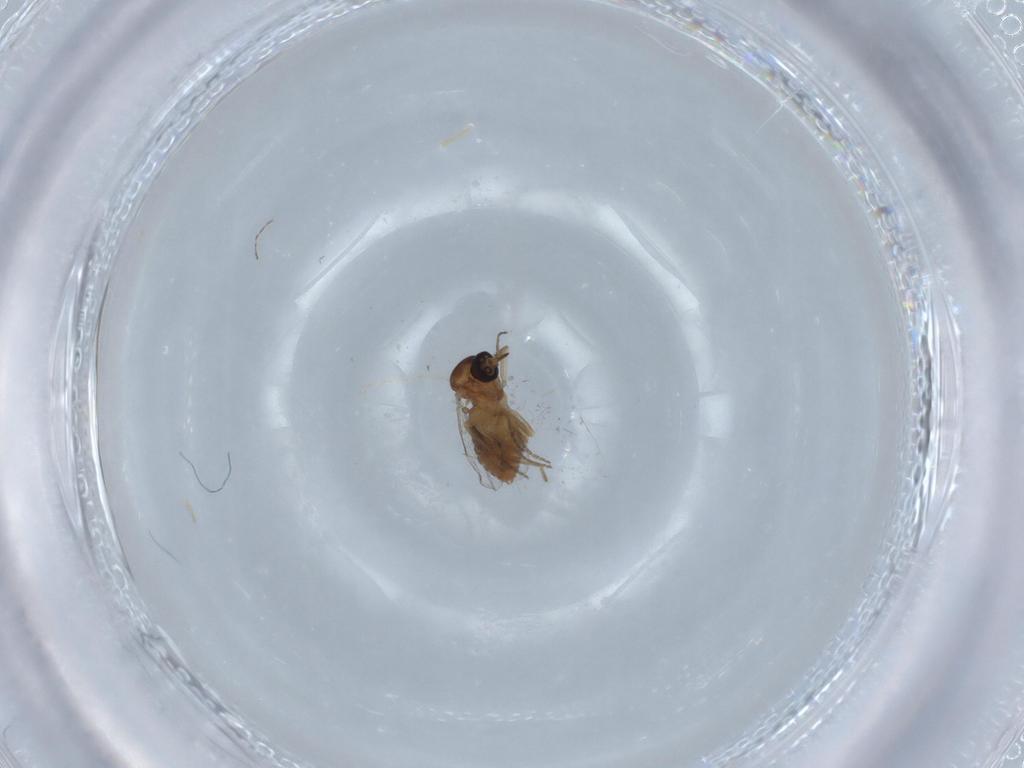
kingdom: Animalia
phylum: Arthropoda
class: Insecta
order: Diptera
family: Ceratopogonidae
